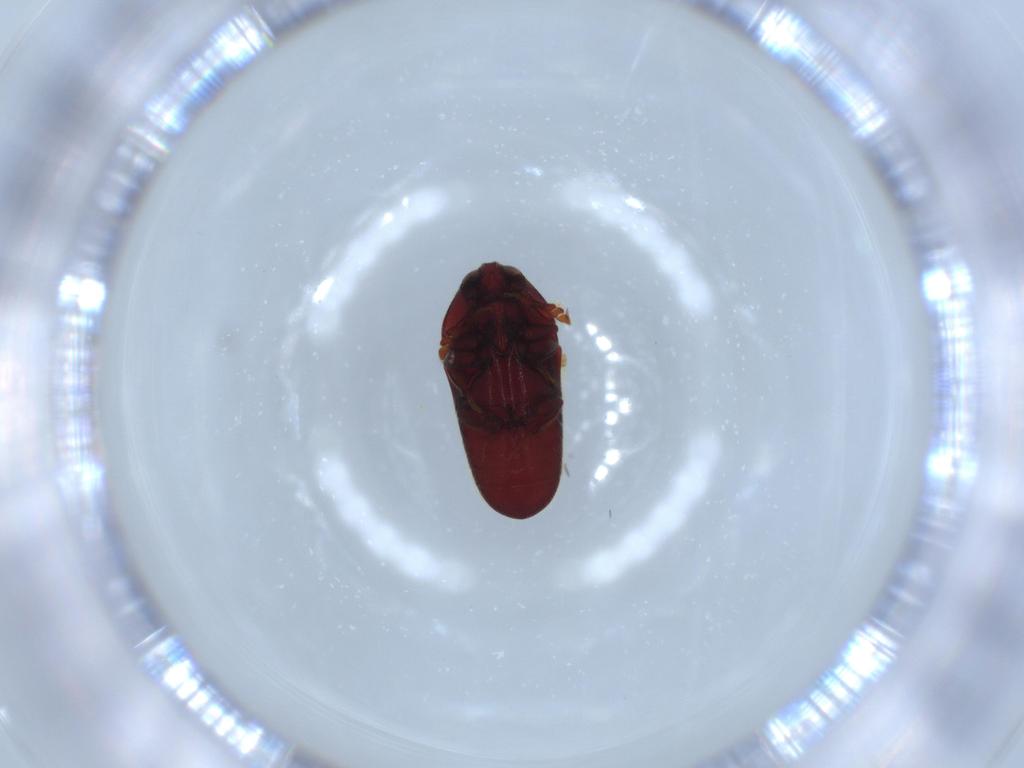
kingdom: Animalia
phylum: Arthropoda
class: Insecta
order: Coleoptera
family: Throscidae
